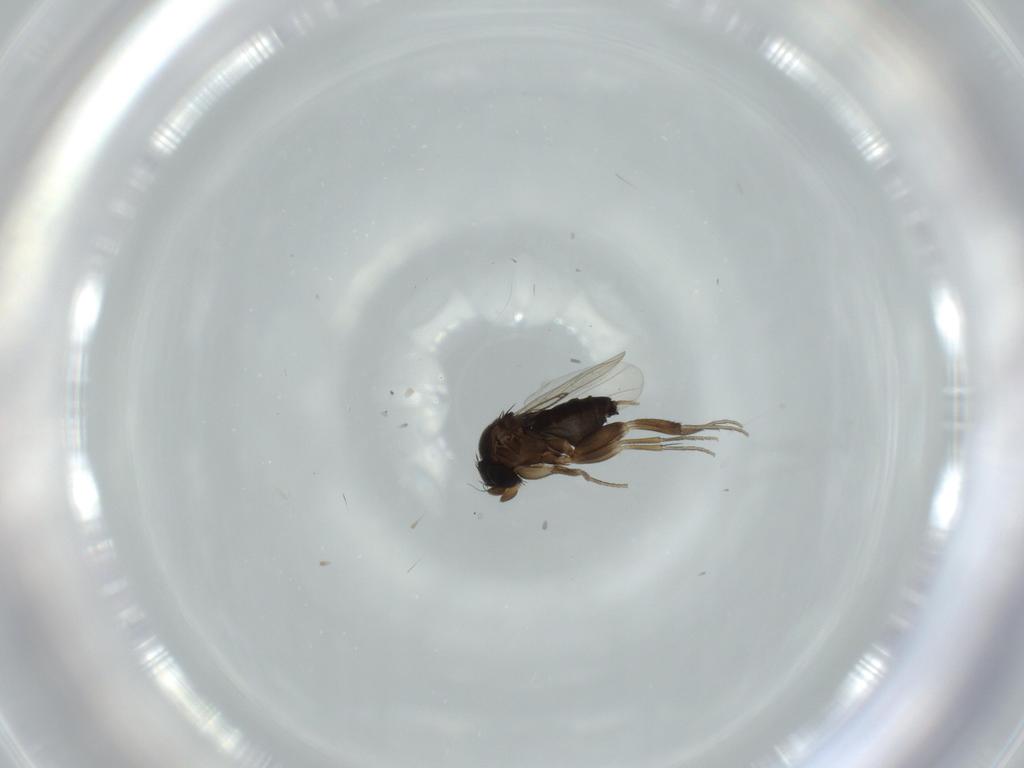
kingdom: Animalia
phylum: Arthropoda
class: Insecta
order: Diptera
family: Phoridae
